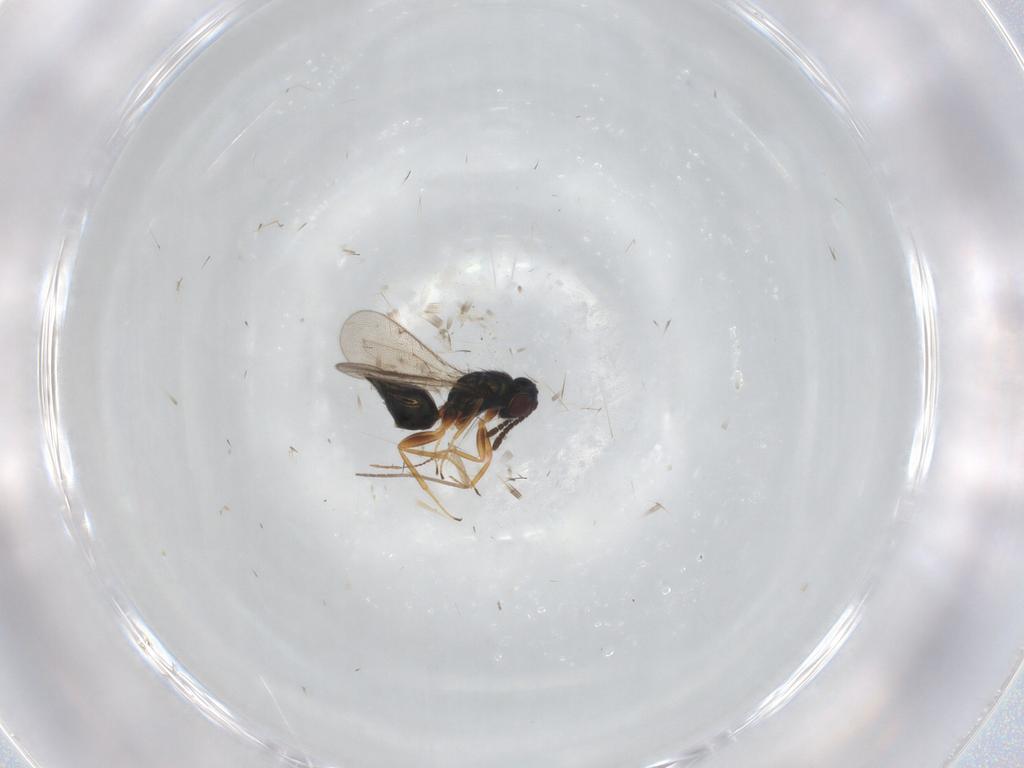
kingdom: Animalia
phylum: Arthropoda
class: Insecta
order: Hymenoptera
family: Tetracampidae
